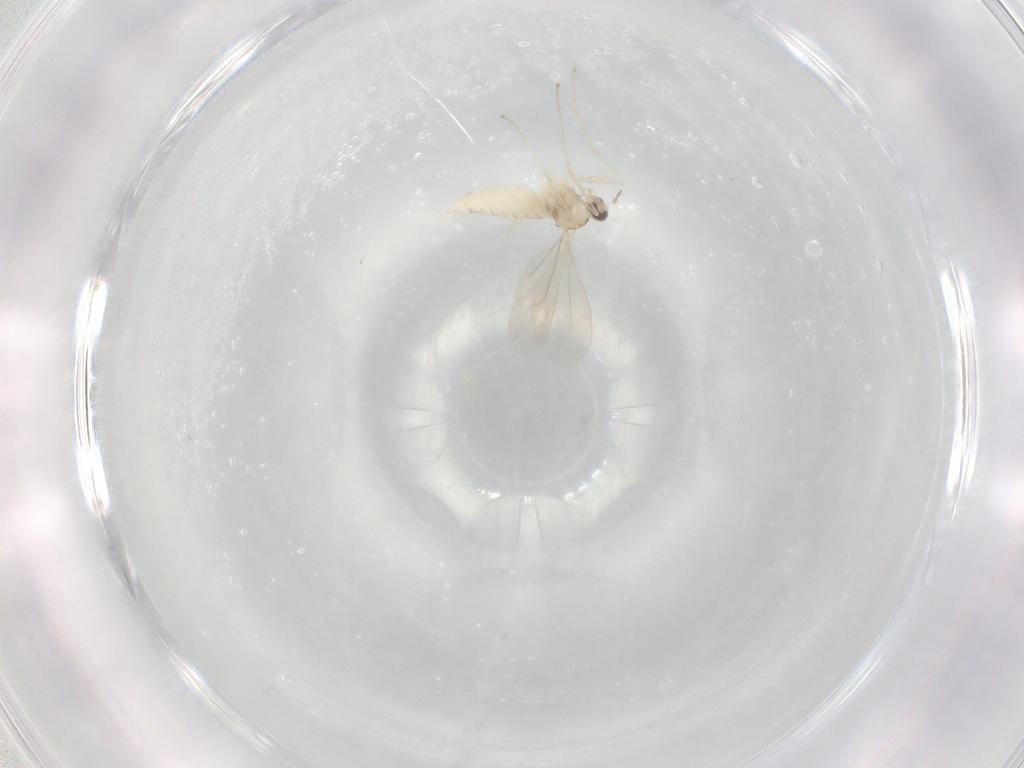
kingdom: Animalia
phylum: Arthropoda
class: Insecta
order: Diptera
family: Cecidomyiidae
